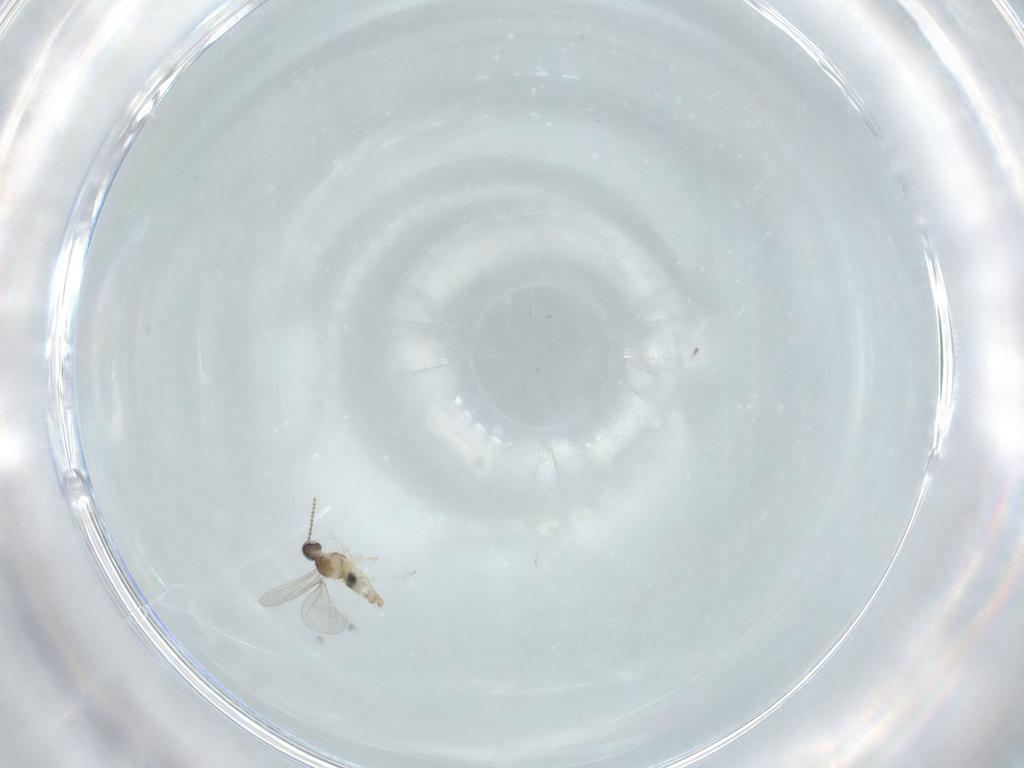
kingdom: Animalia
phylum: Arthropoda
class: Insecta
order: Diptera
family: Cecidomyiidae
